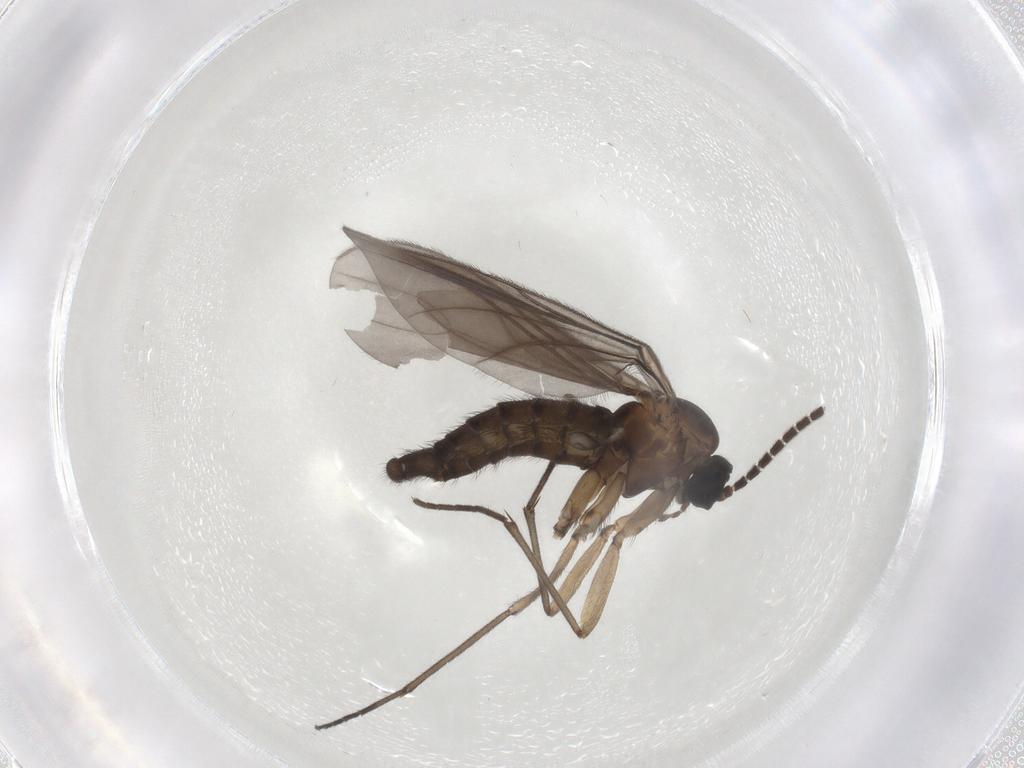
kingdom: Animalia
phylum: Arthropoda
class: Insecta
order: Diptera
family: Sciaridae
